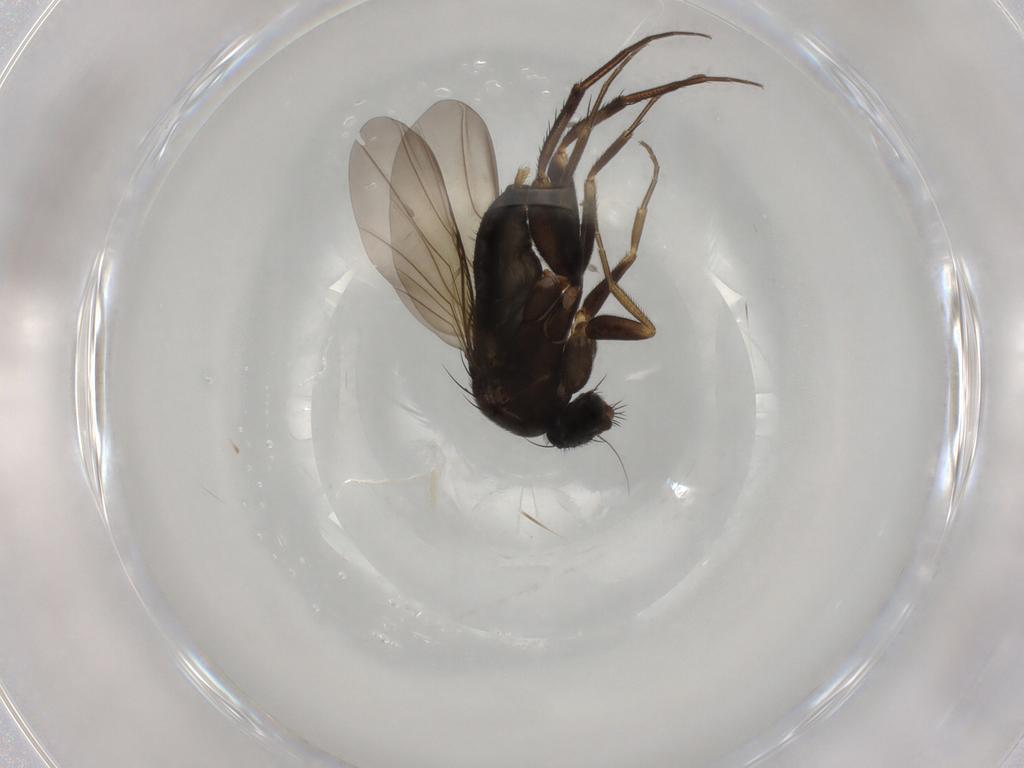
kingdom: Animalia
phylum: Arthropoda
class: Insecta
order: Diptera
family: Phoridae
